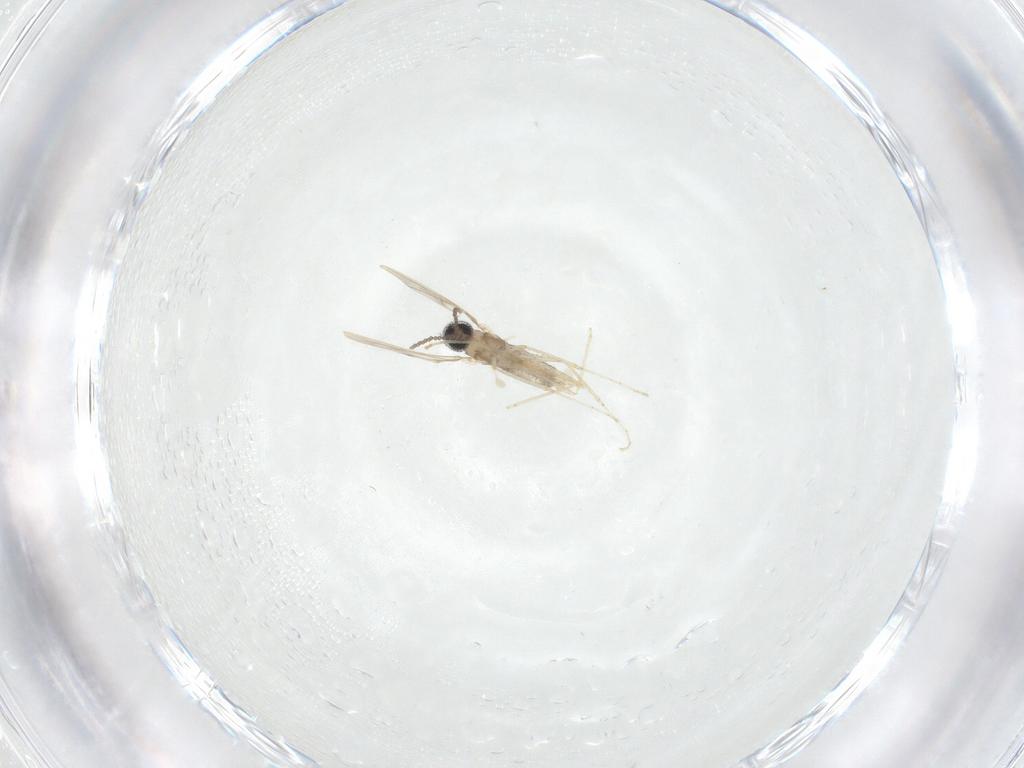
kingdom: Animalia
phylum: Arthropoda
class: Insecta
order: Diptera
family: Cecidomyiidae
